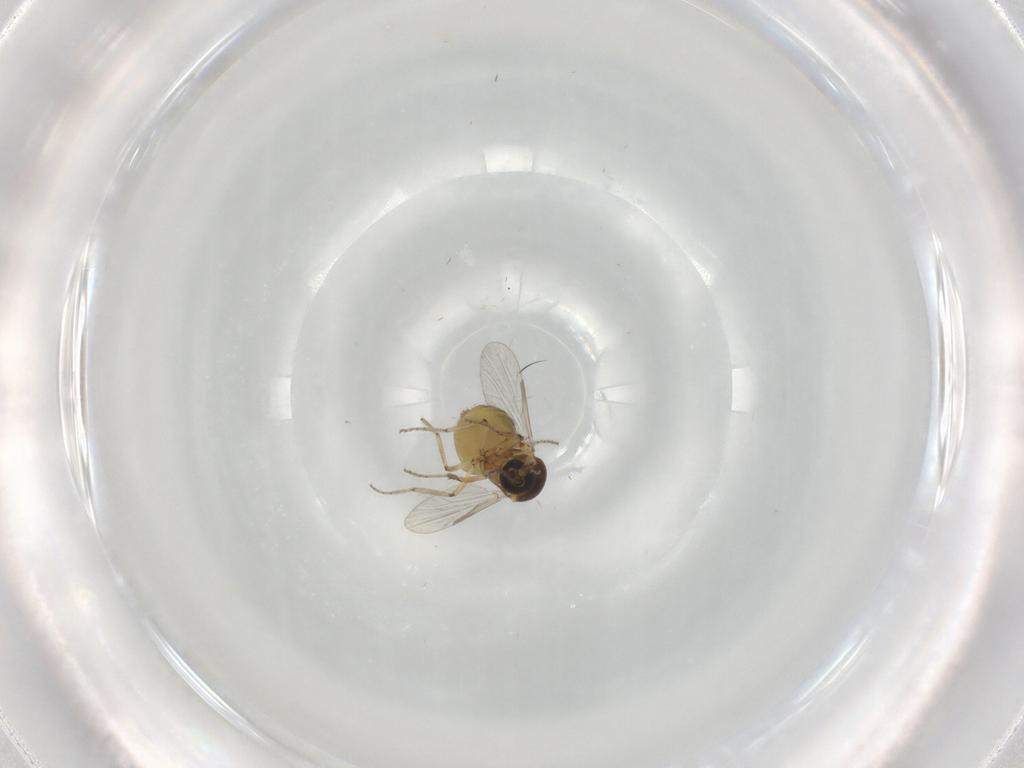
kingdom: Animalia
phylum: Arthropoda
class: Insecta
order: Diptera
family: Ceratopogonidae
